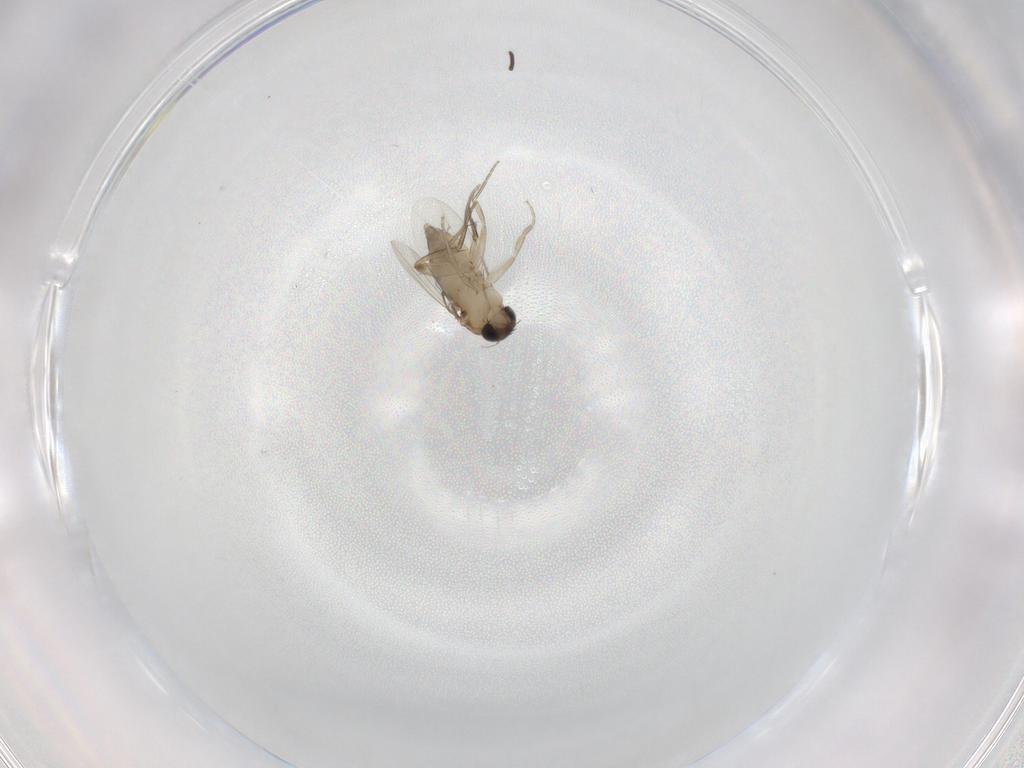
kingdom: Animalia
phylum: Arthropoda
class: Insecta
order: Diptera
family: Phoridae
